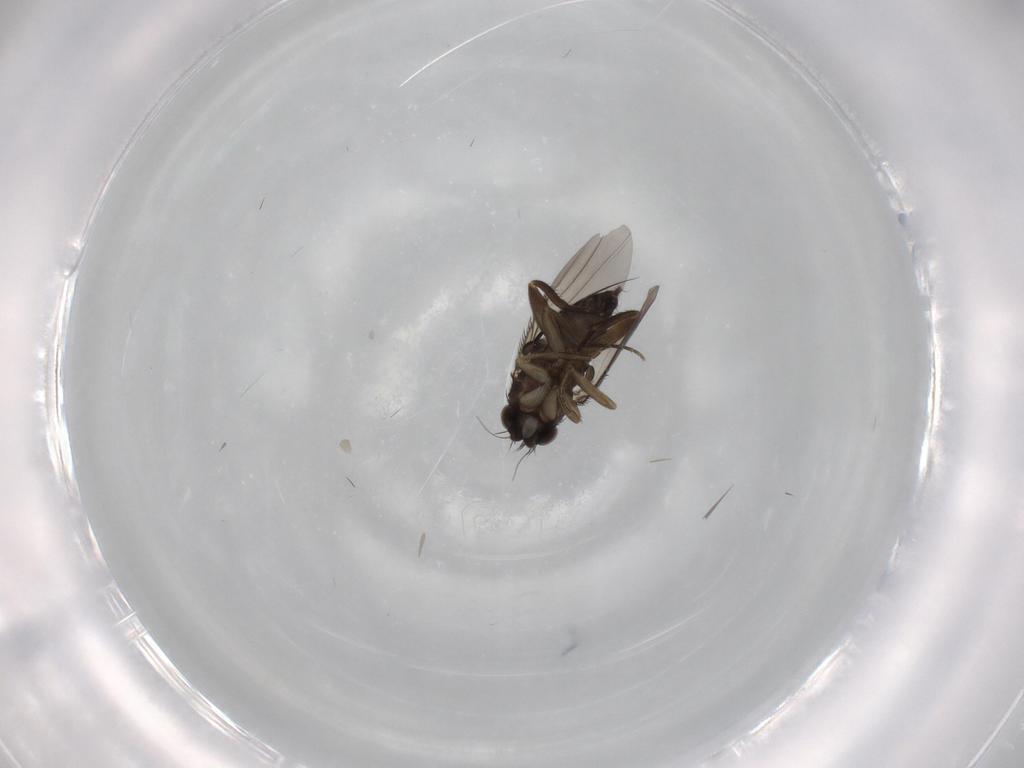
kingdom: Animalia
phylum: Arthropoda
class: Insecta
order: Diptera
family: Phoridae
